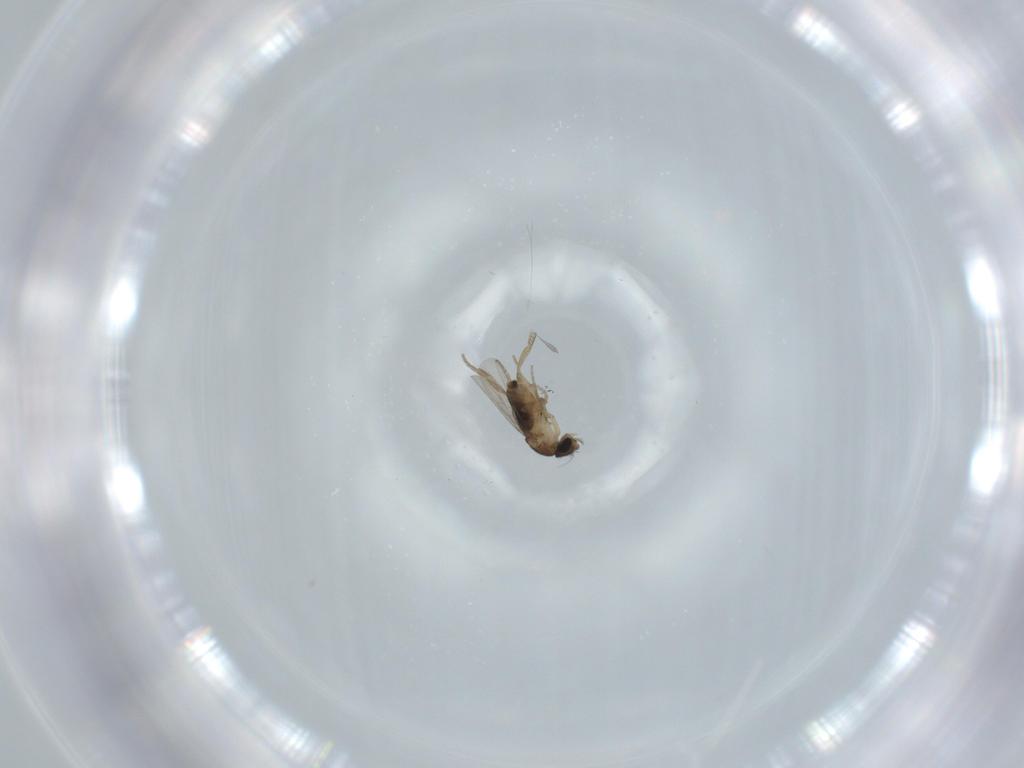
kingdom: Animalia
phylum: Arthropoda
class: Insecta
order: Diptera
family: Phoridae
